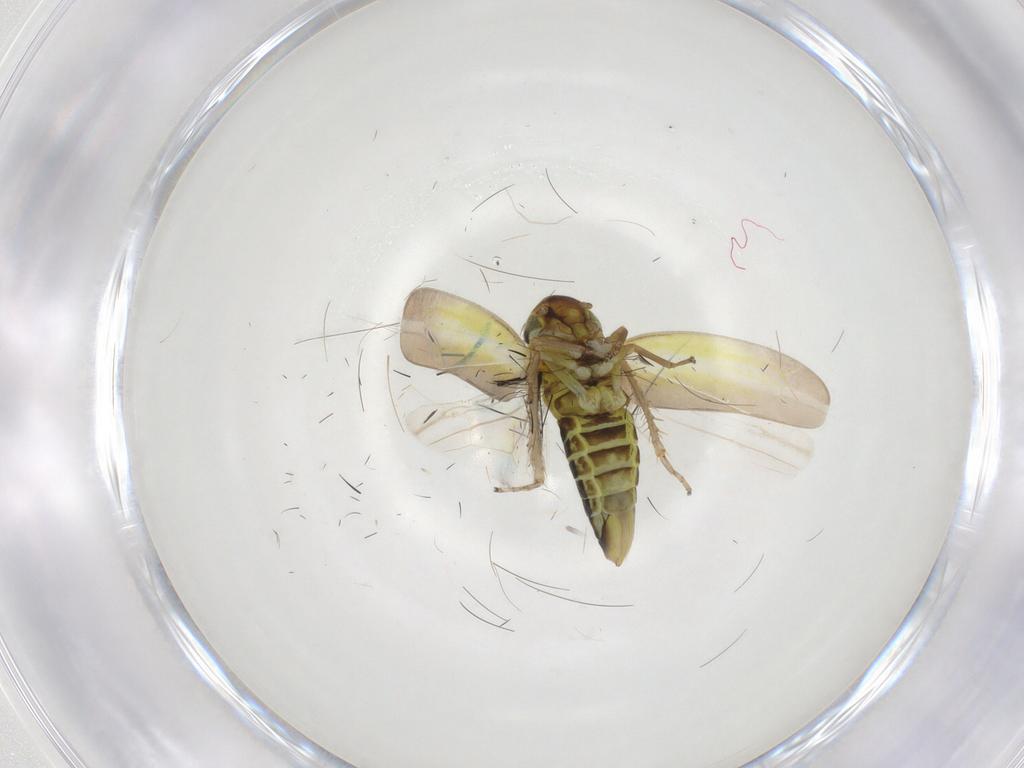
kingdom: Animalia
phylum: Arthropoda
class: Insecta
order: Hemiptera
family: Cicadellidae
